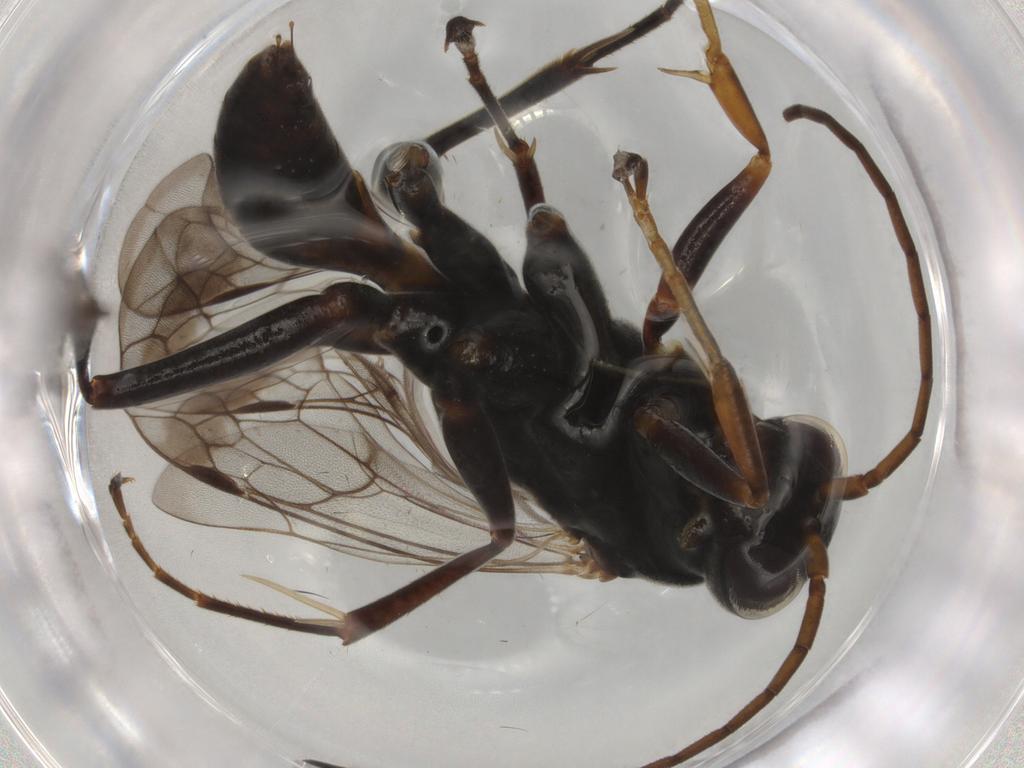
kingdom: Animalia
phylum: Arthropoda
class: Insecta
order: Hymenoptera
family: Pompilidae
